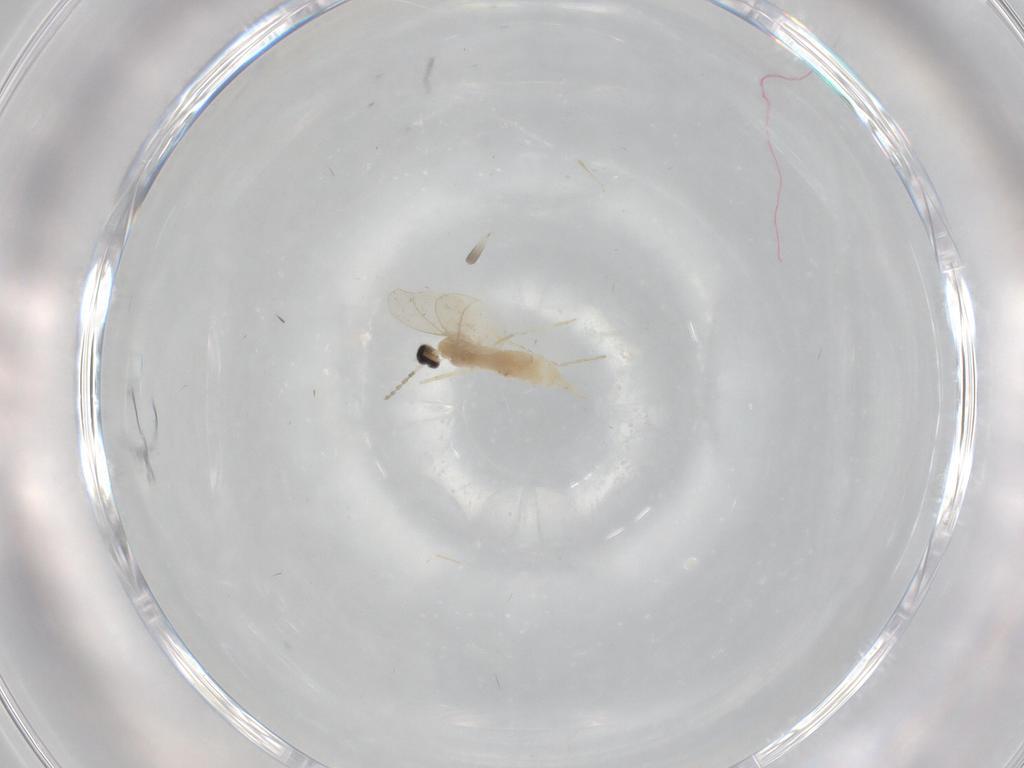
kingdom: Animalia
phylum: Arthropoda
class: Insecta
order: Diptera
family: Cecidomyiidae
